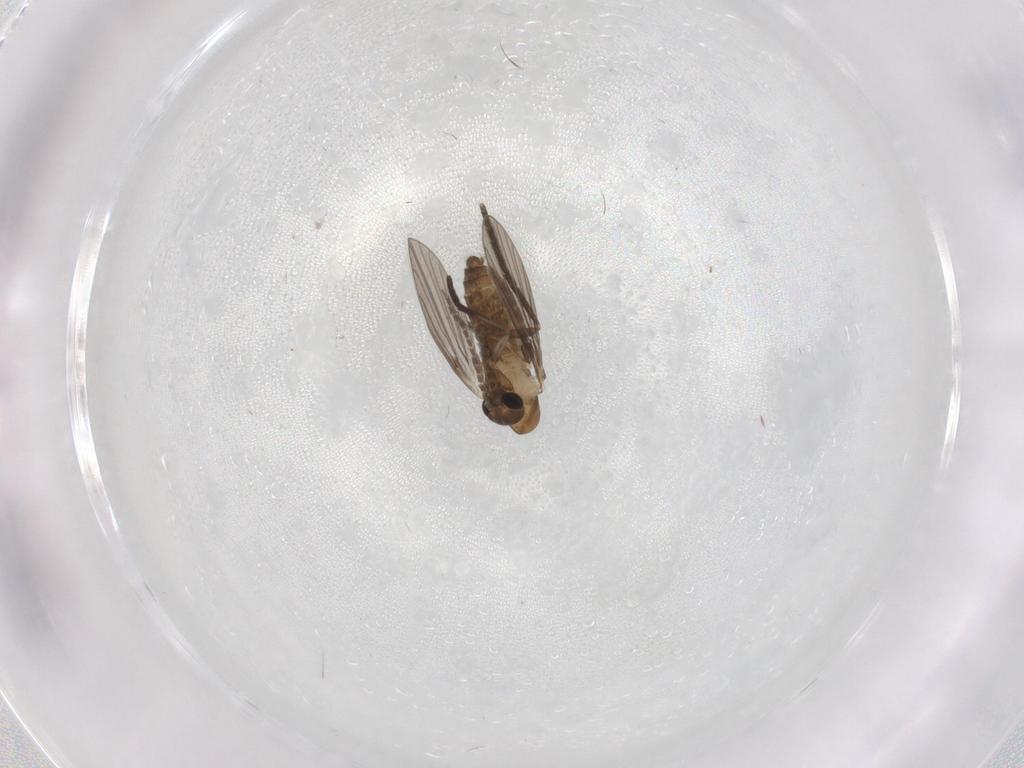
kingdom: Animalia
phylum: Arthropoda
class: Insecta
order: Diptera
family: Psychodidae
